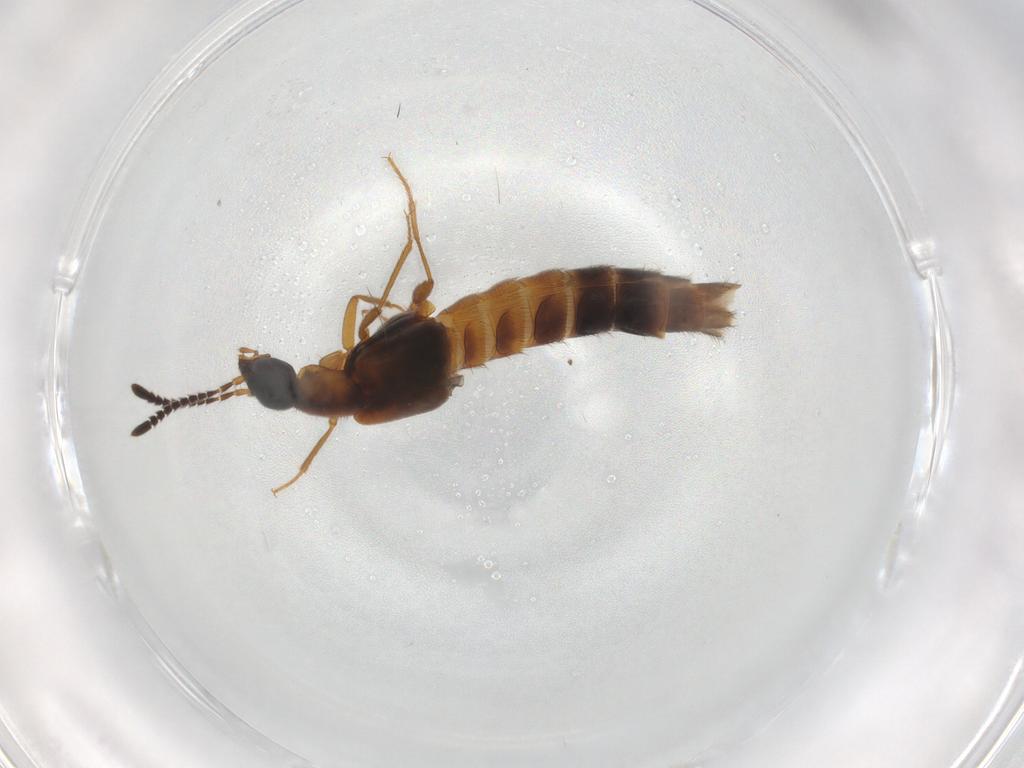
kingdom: Animalia
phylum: Arthropoda
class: Insecta
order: Coleoptera
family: Staphylinidae
